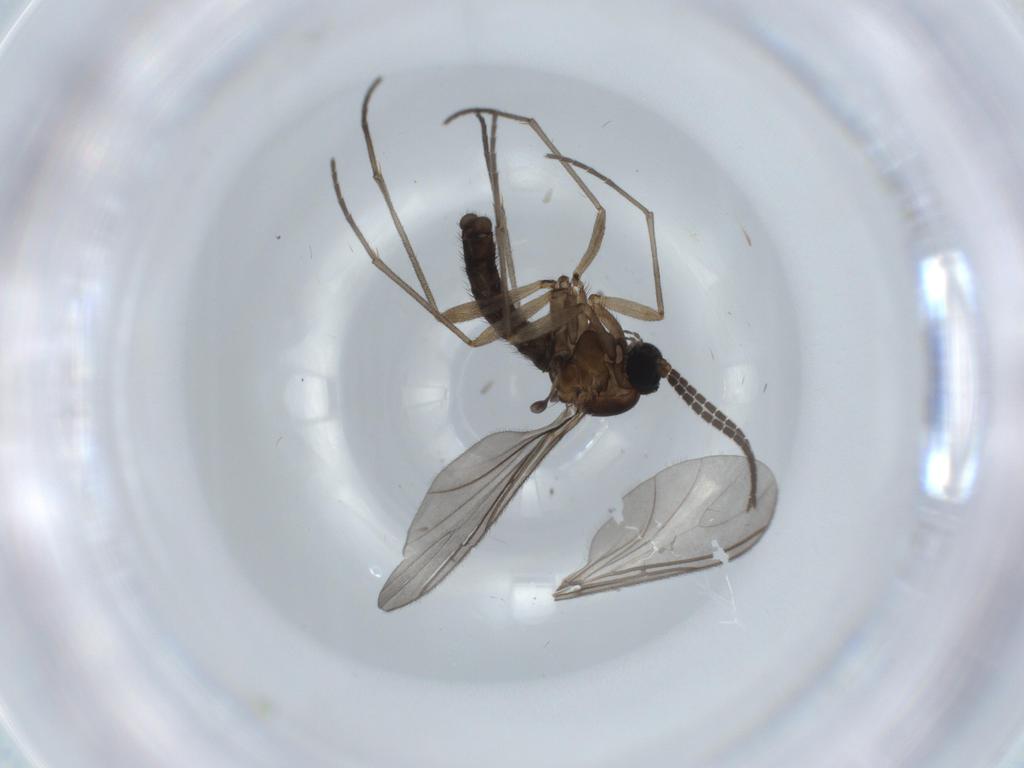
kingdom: Animalia
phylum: Arthropoda
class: Insecta
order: Diptera
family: Sciaridae
